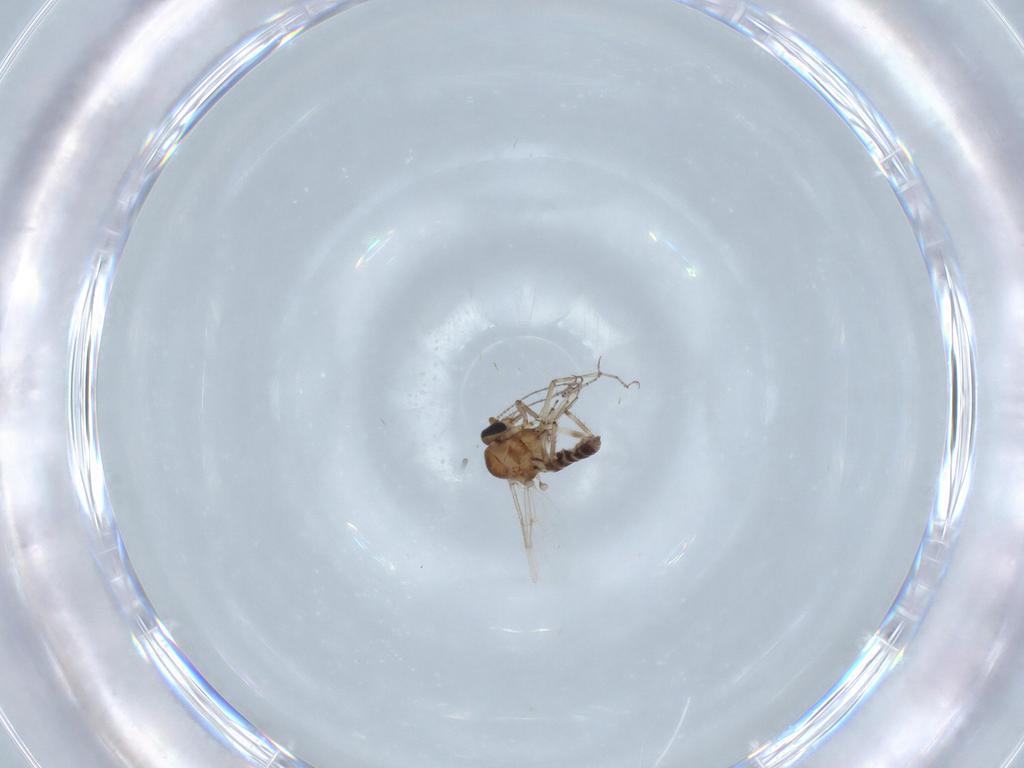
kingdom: Animalia
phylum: Arthropoda
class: Insecta
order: Diptera
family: Ceratopogonidae
